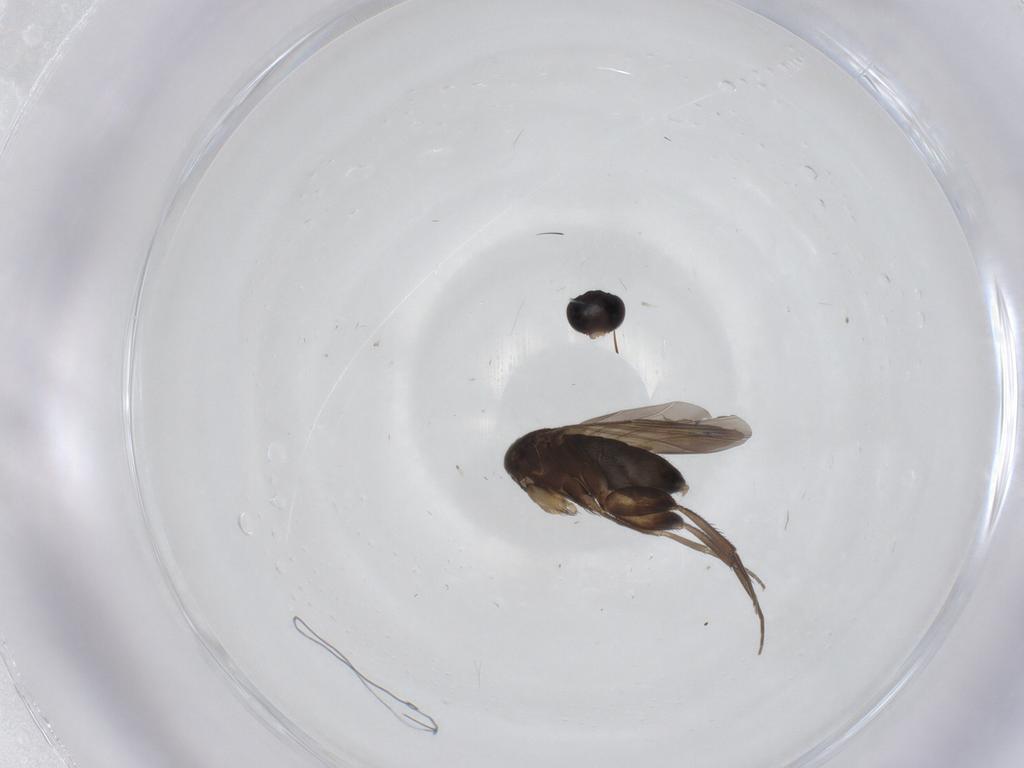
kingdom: Animalia
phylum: Arthropoda
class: Insecta
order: Diptera
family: Phoridae
